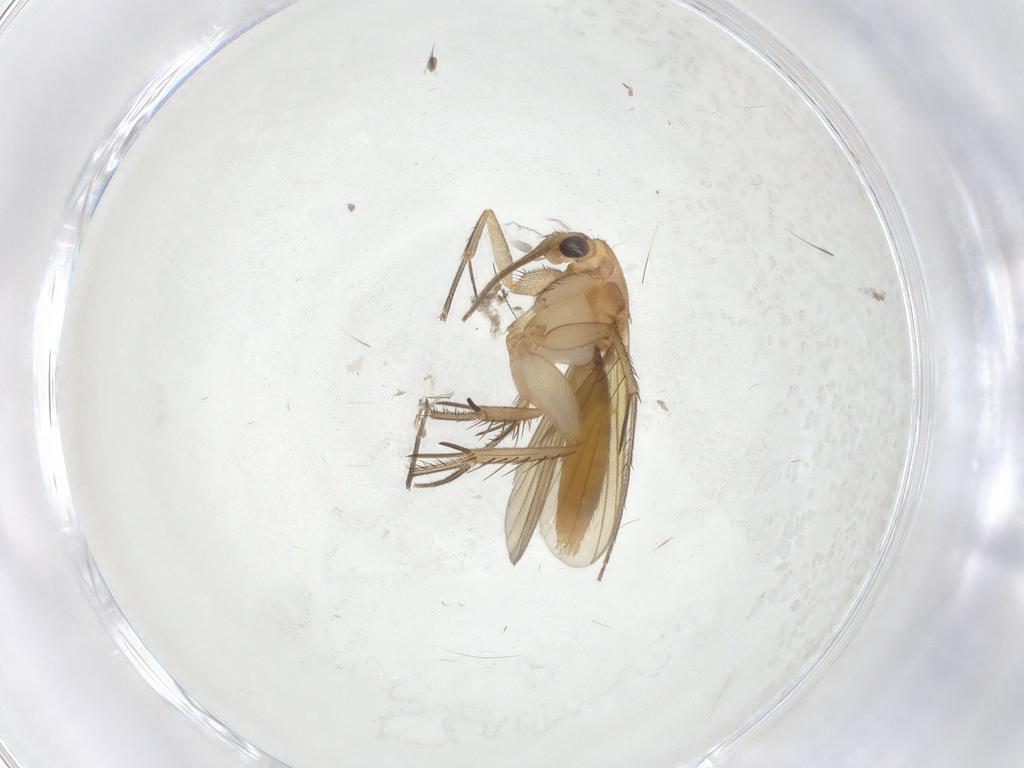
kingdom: Animalia
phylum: Arthropoda
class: Insecta
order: Diptera
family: Mycetophilidae
